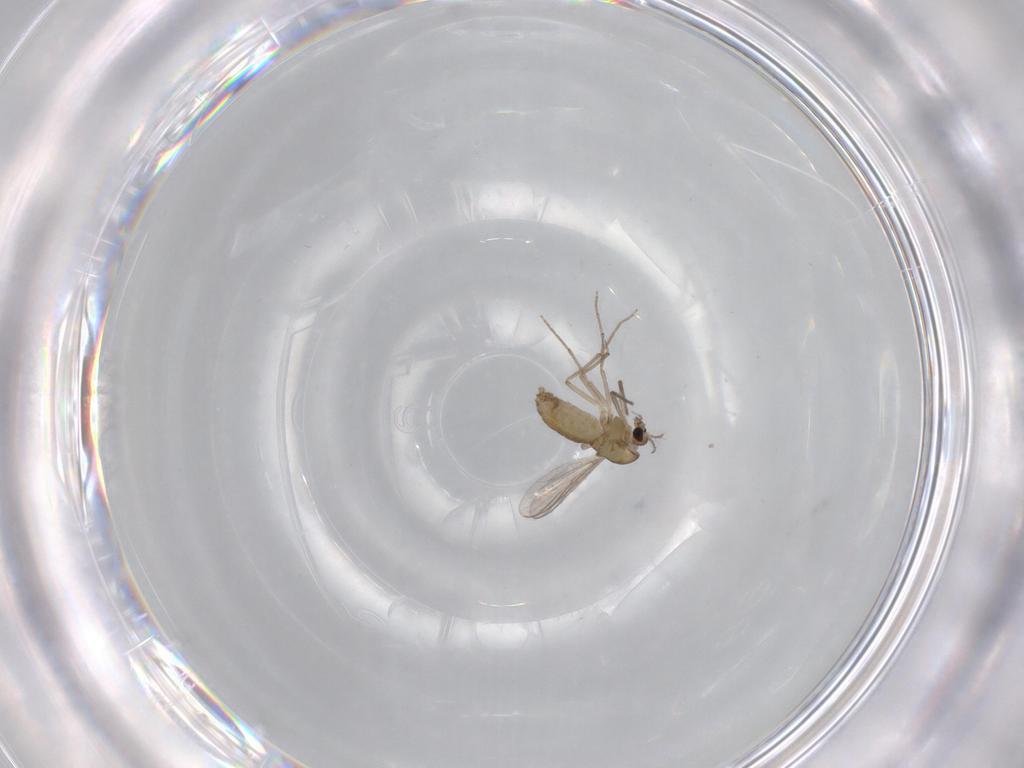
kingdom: Animalia
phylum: Arthropoda
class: Insecta
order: Diptera
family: Chironomidae
